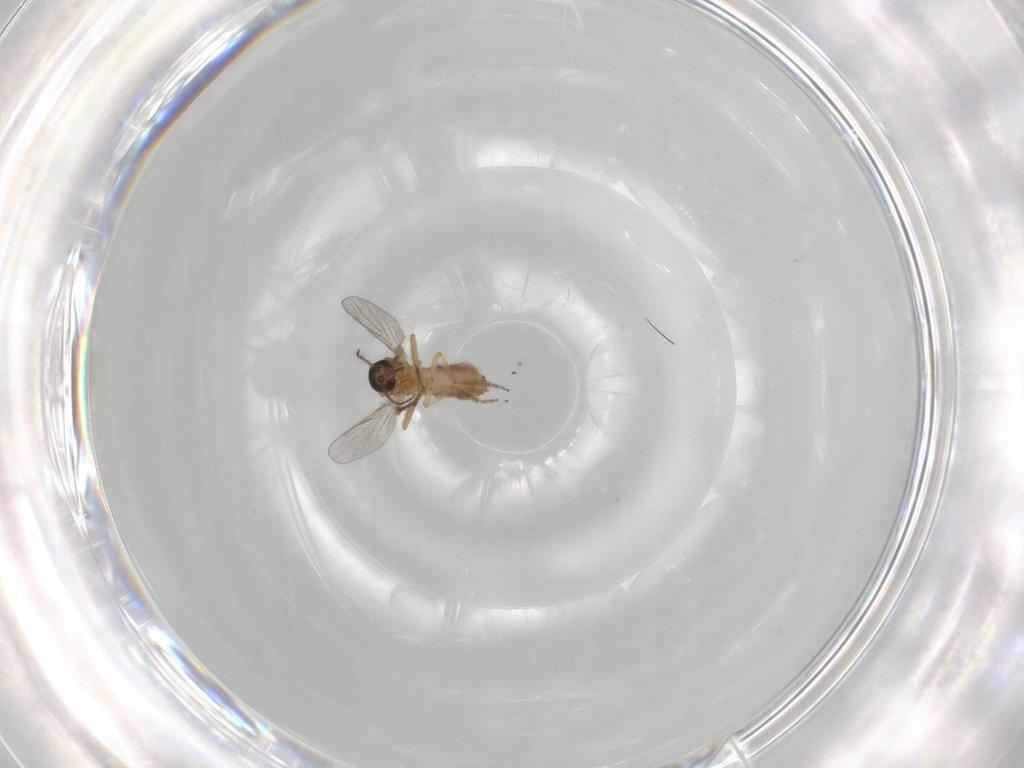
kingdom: Animalia
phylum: Arthropoda
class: Insecta
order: Diptera
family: Ceratopogonidae
